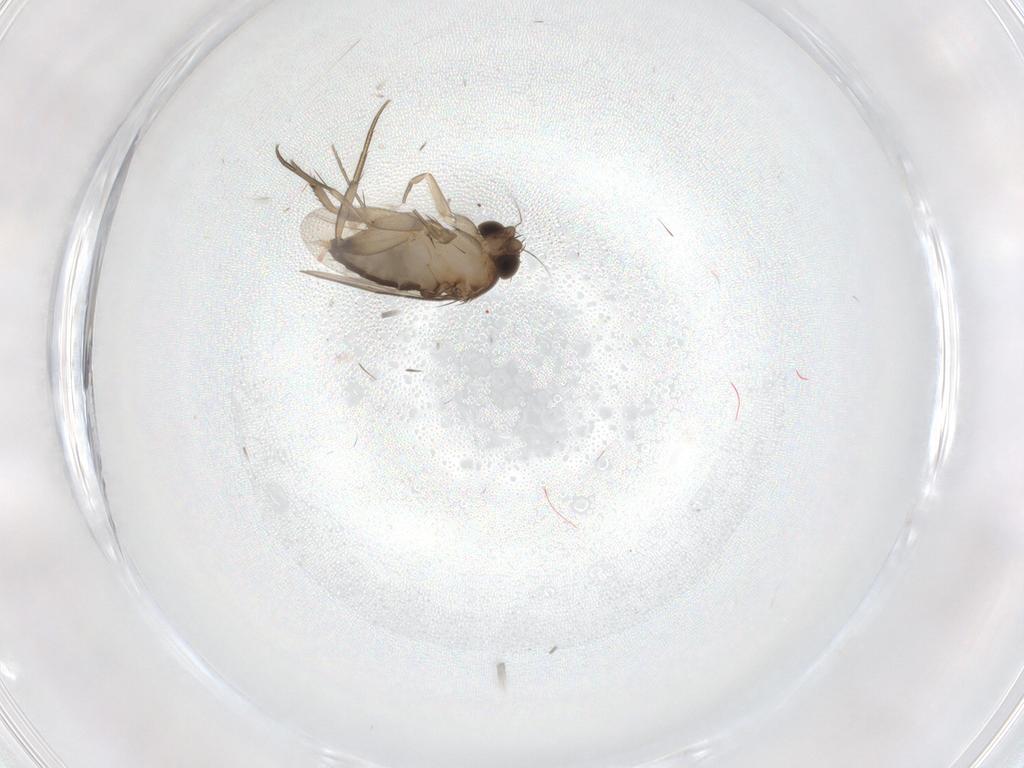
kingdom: Animalia
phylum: Arthropoda
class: Insecta
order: Diptera
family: Phoridae
